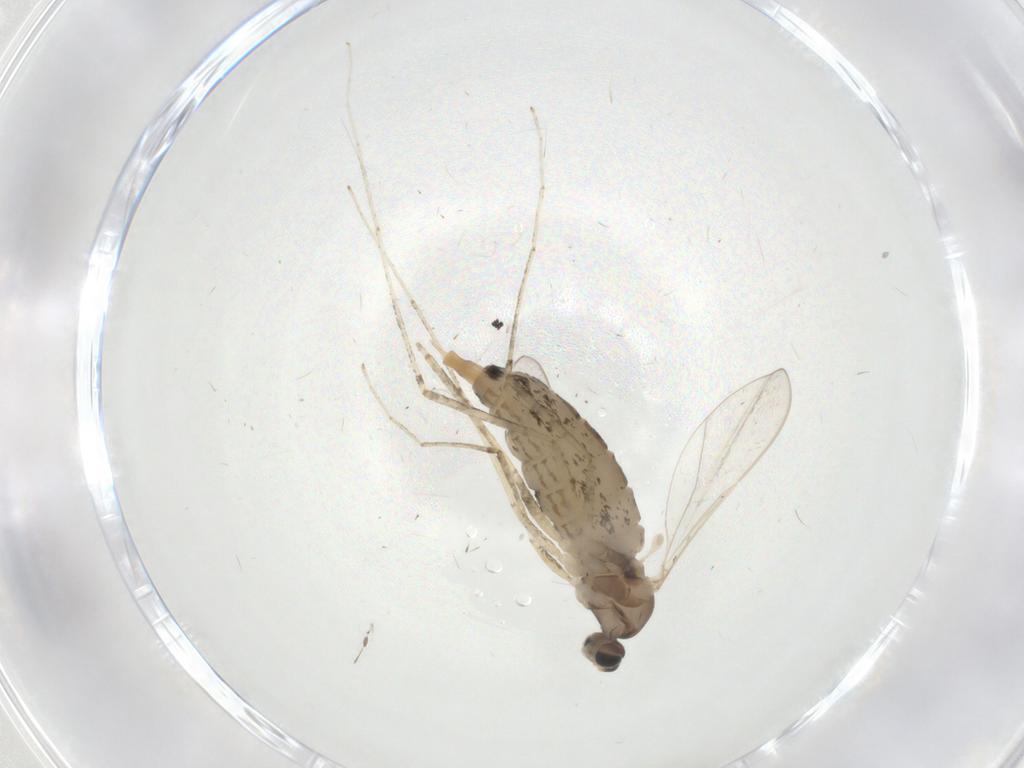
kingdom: Animalia
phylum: Arthropoda
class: Insecta
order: Diptera
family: Cecidomyiidae
